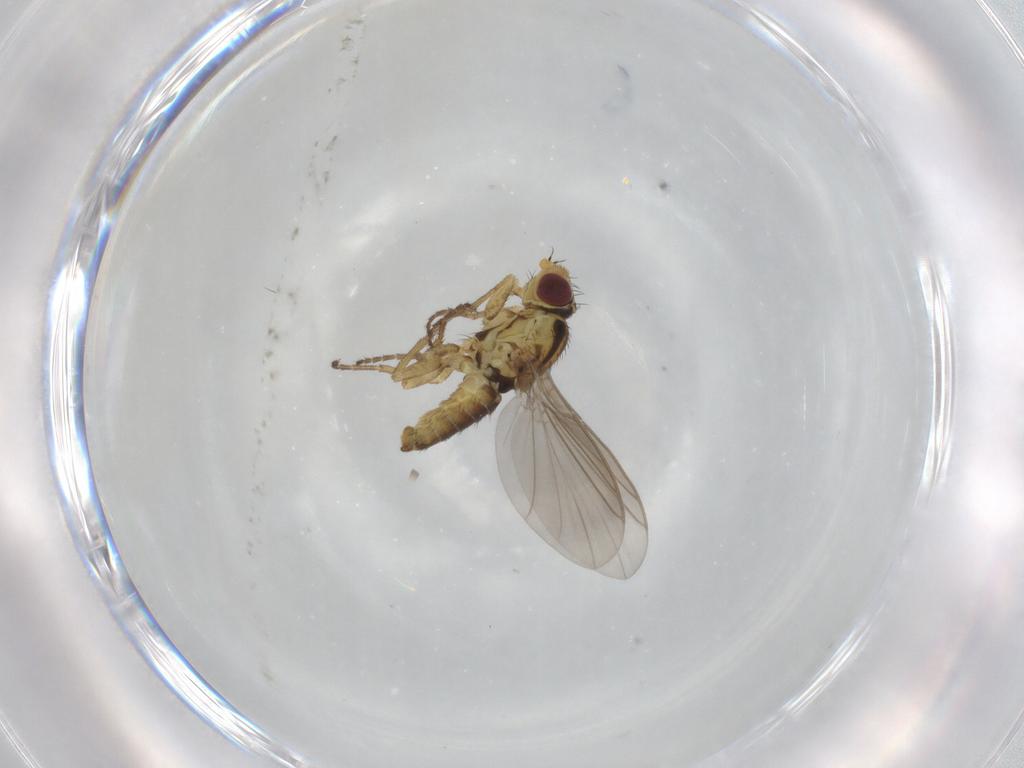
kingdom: Animalia
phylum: Arthropoda
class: Insecta
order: Diptera
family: Agromyzidae
